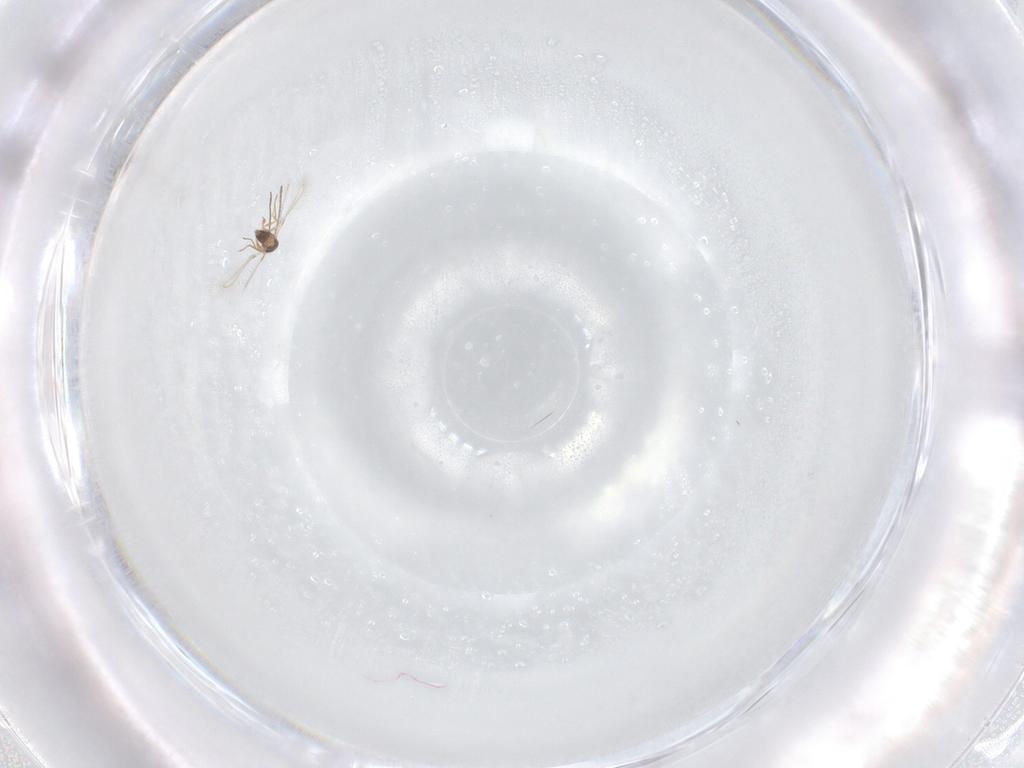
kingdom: Animalia
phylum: Arthropoda
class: Insecta
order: Hymenoptera
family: Mymaridae
